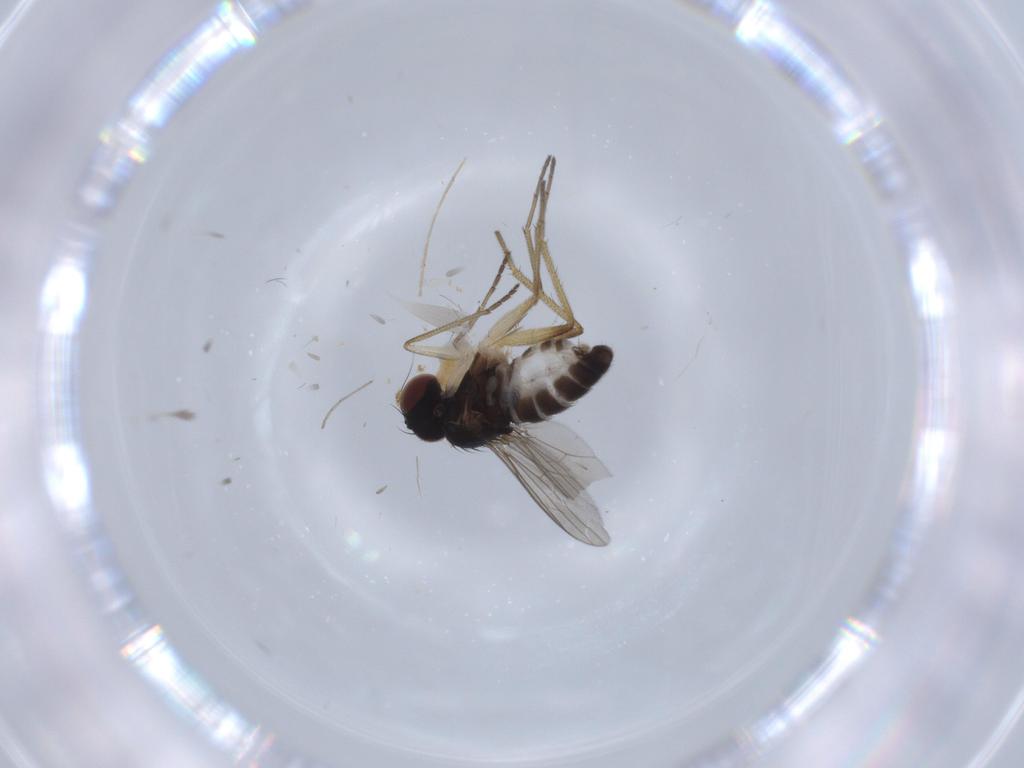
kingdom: Animalia
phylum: Arthropoda
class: Insecta
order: Diptera
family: Dolichopodidae
